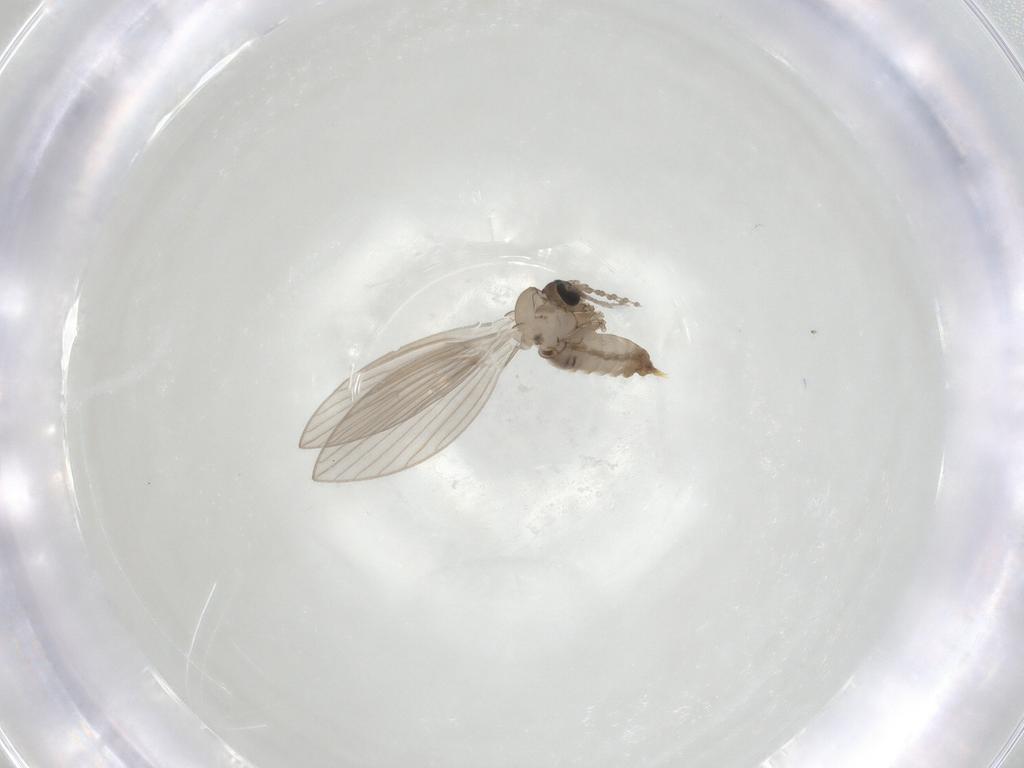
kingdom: Animalia
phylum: Arthropoda
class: Insecta
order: Diptera
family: Psychodidae
